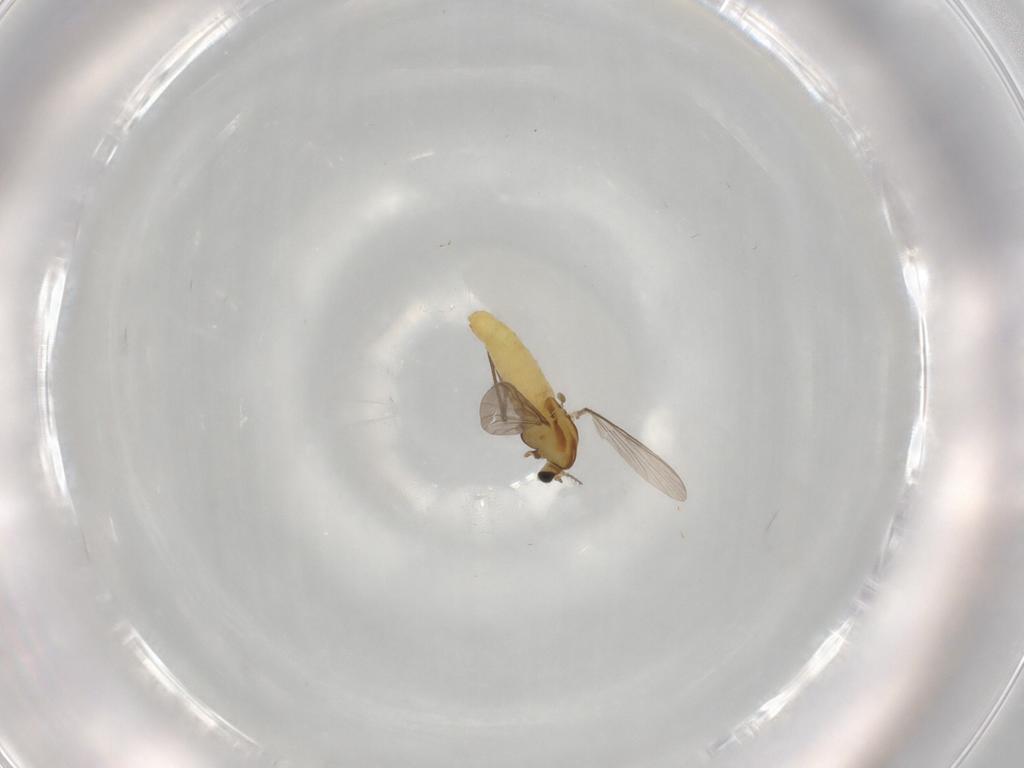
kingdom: Animalia
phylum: Arthropoda
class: Insecta
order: Diptera
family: Chironomidae
